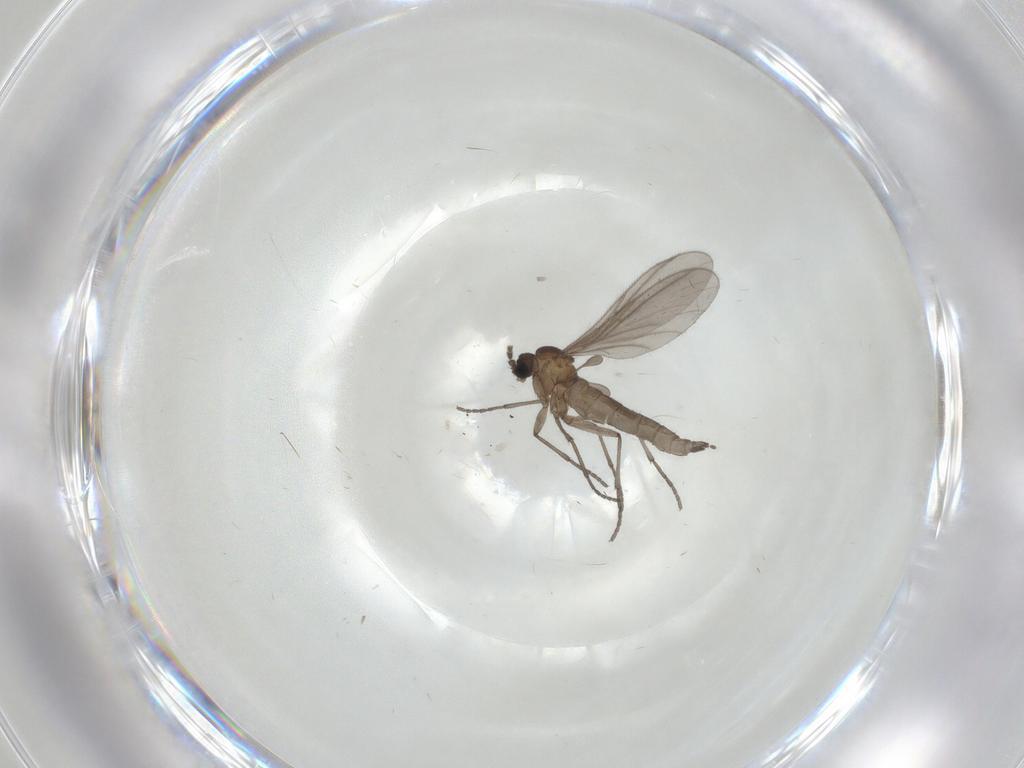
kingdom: Animalia
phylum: Arthropoda
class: Insecta
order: Diptera
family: Sciaridae
